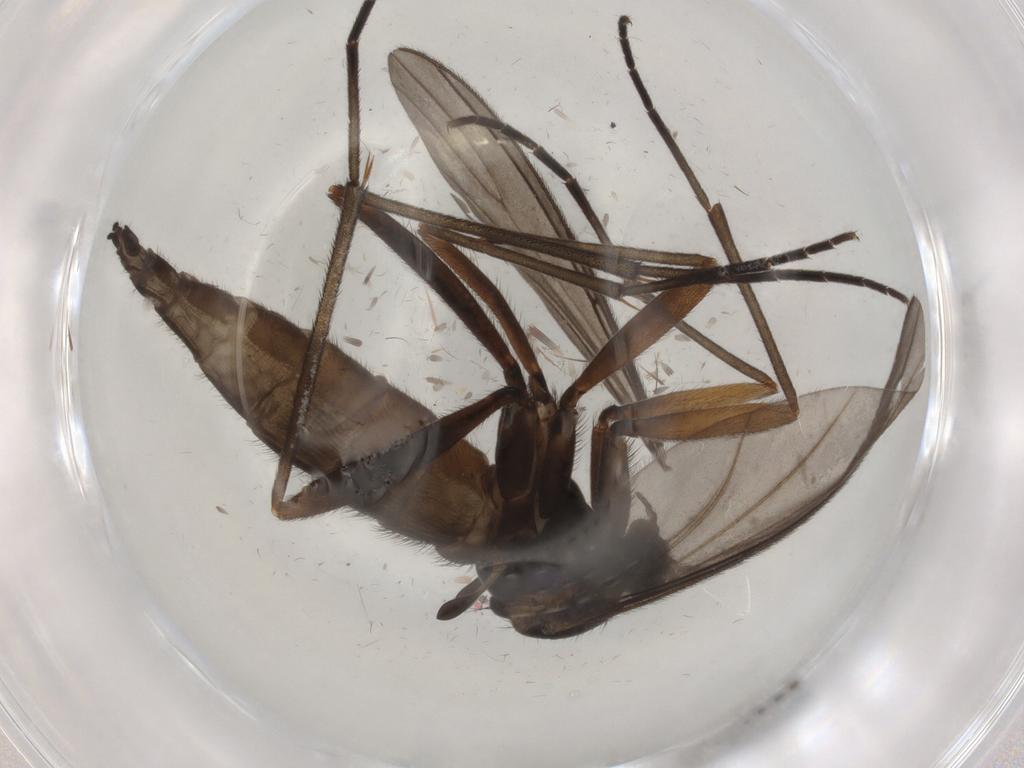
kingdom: Animalia
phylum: Arthropoda
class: Insecta
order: Diptera
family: Sciaridae
